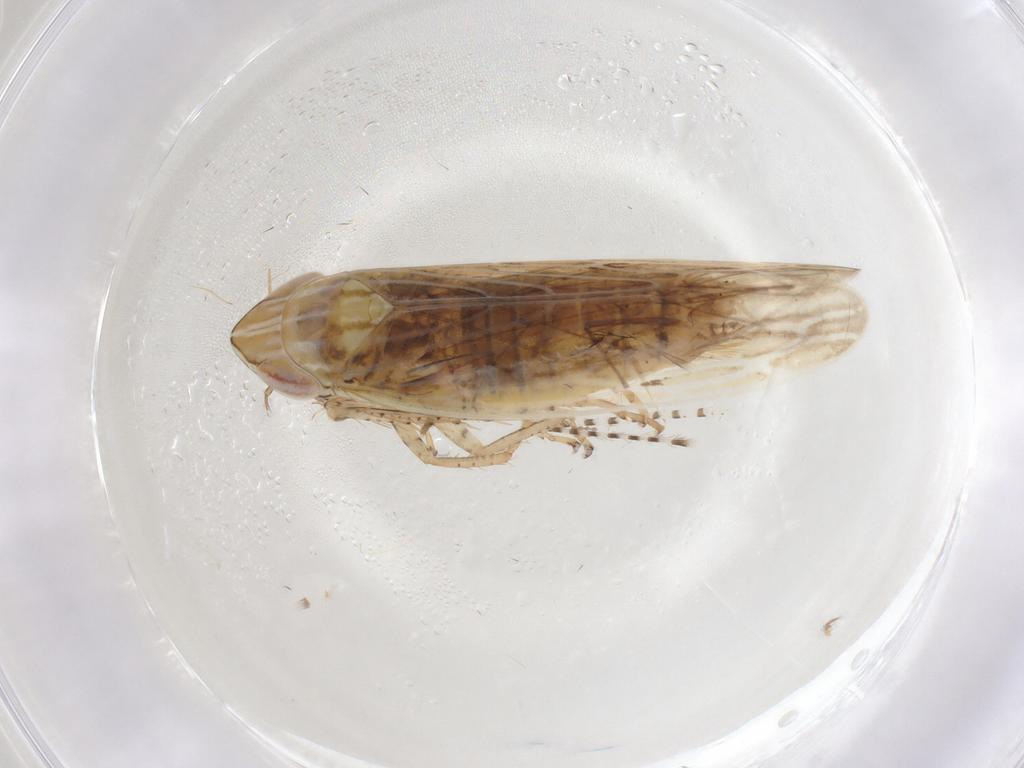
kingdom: Animalia
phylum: Arthropoda
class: Insecta
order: Hemiptera
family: Cicadellidae
